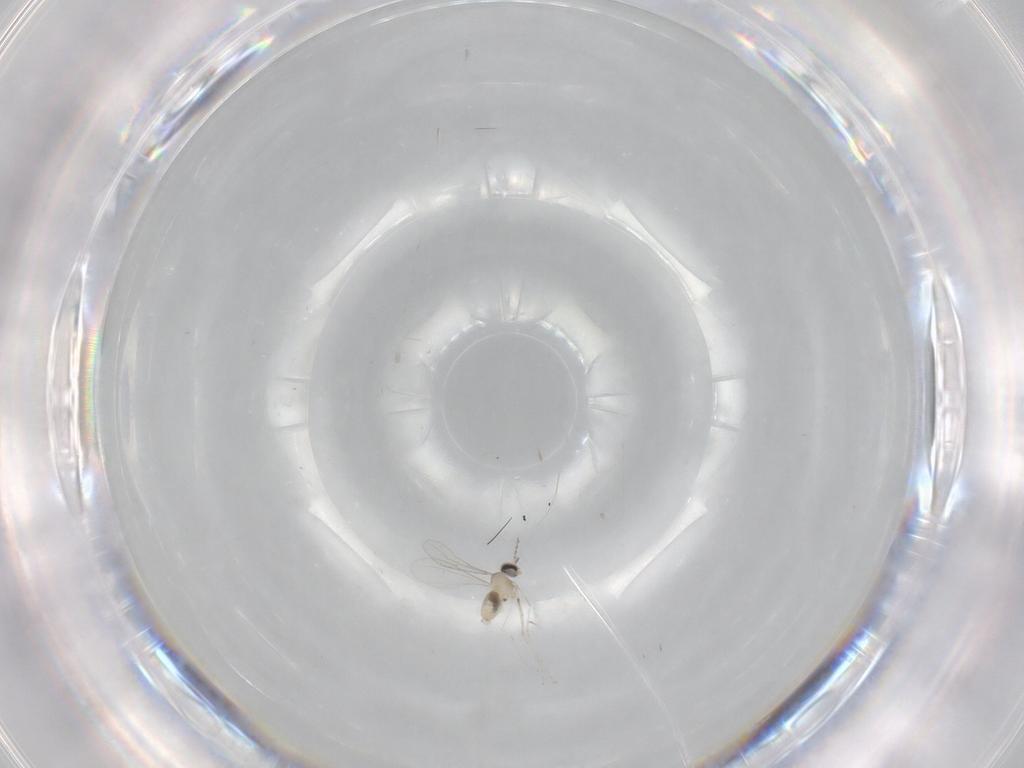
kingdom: Animalia
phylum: Arthropoda
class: Insecta
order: Diptera
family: Cecidomyiidae
